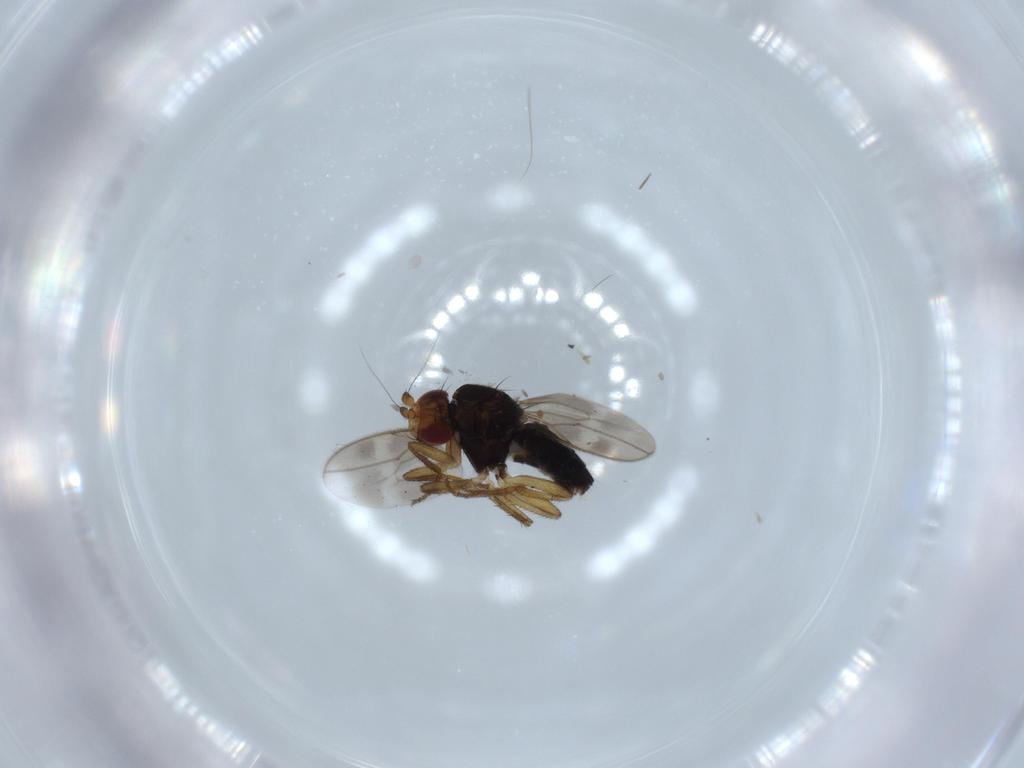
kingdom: Animalia
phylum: Arthropoda
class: Insecta
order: Diptera
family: Sphaeroceridae
